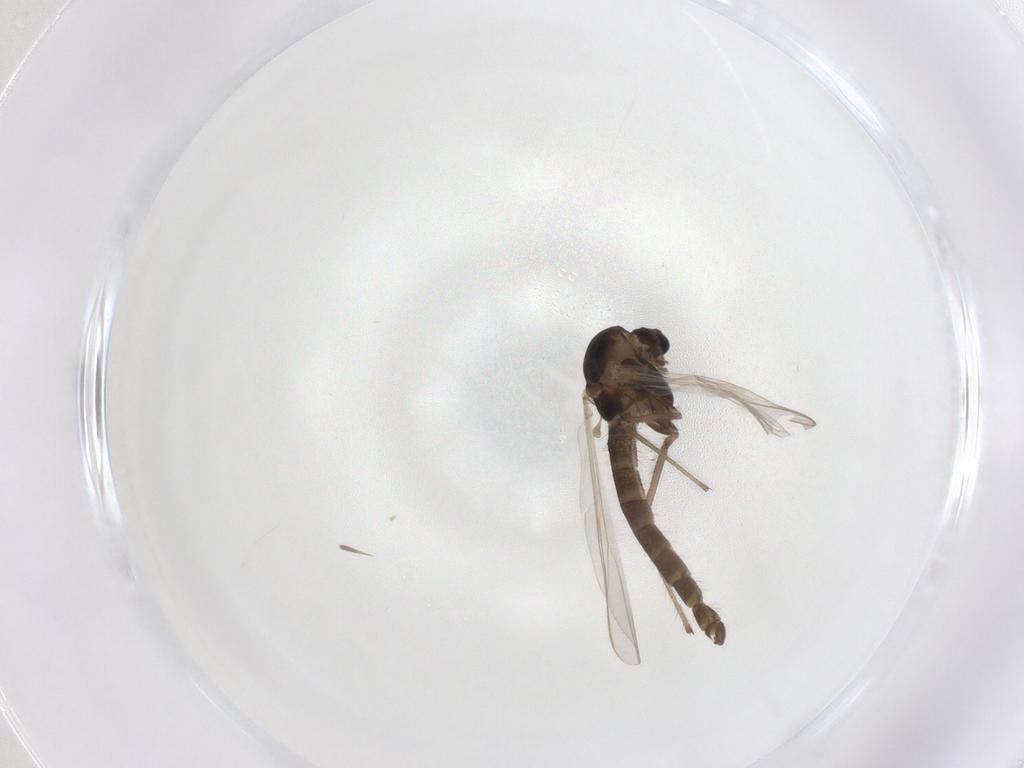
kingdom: Animalia
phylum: Arthropoda
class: Insecta
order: Diptera
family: Chironomidae
